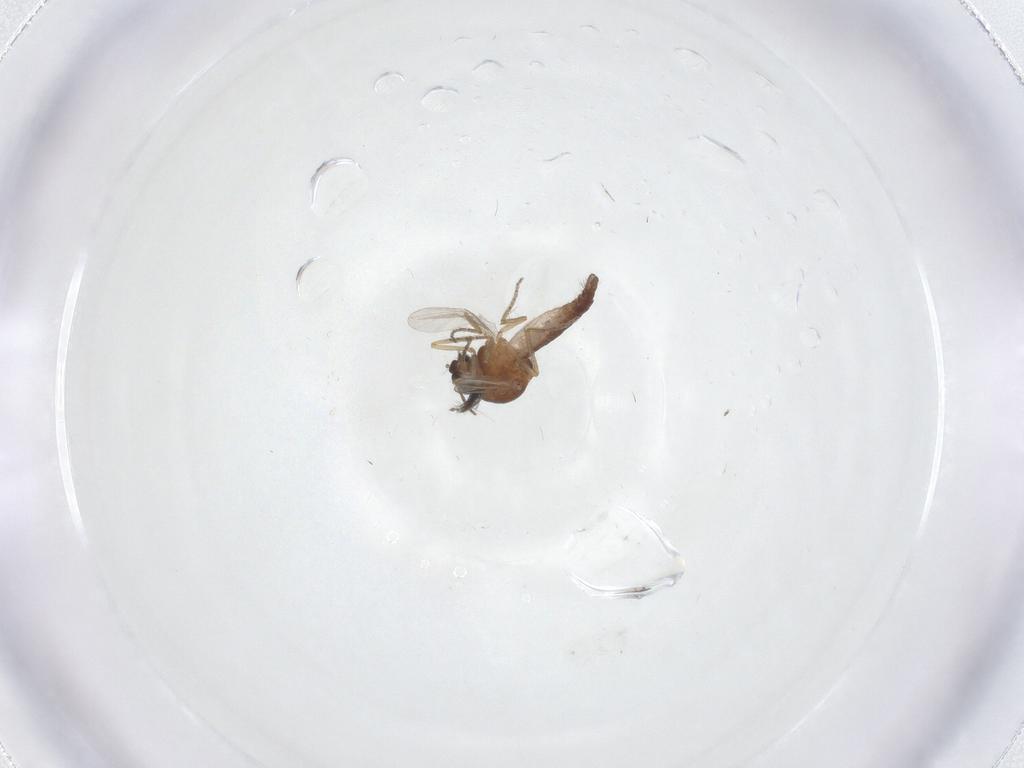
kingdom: Animalia
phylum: Arthropoda
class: Insecta
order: Diptera
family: Ceratopogonidae
